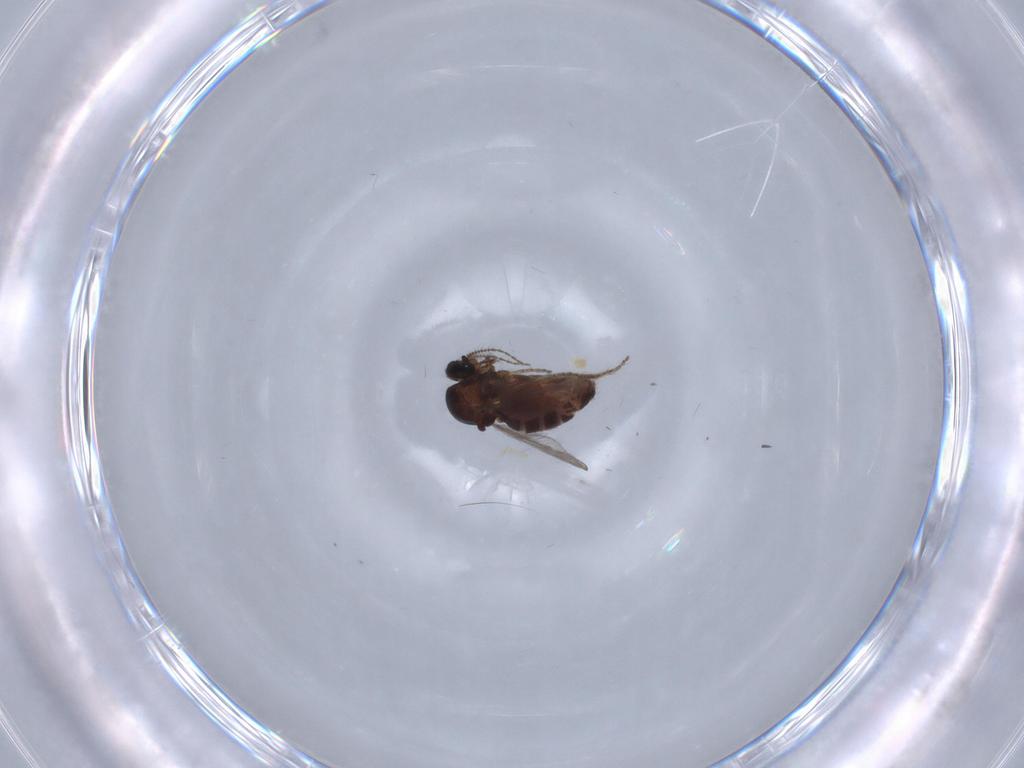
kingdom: Animalia
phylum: Arthropoda
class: Insecta
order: Diptera
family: Ceratopogonidae
